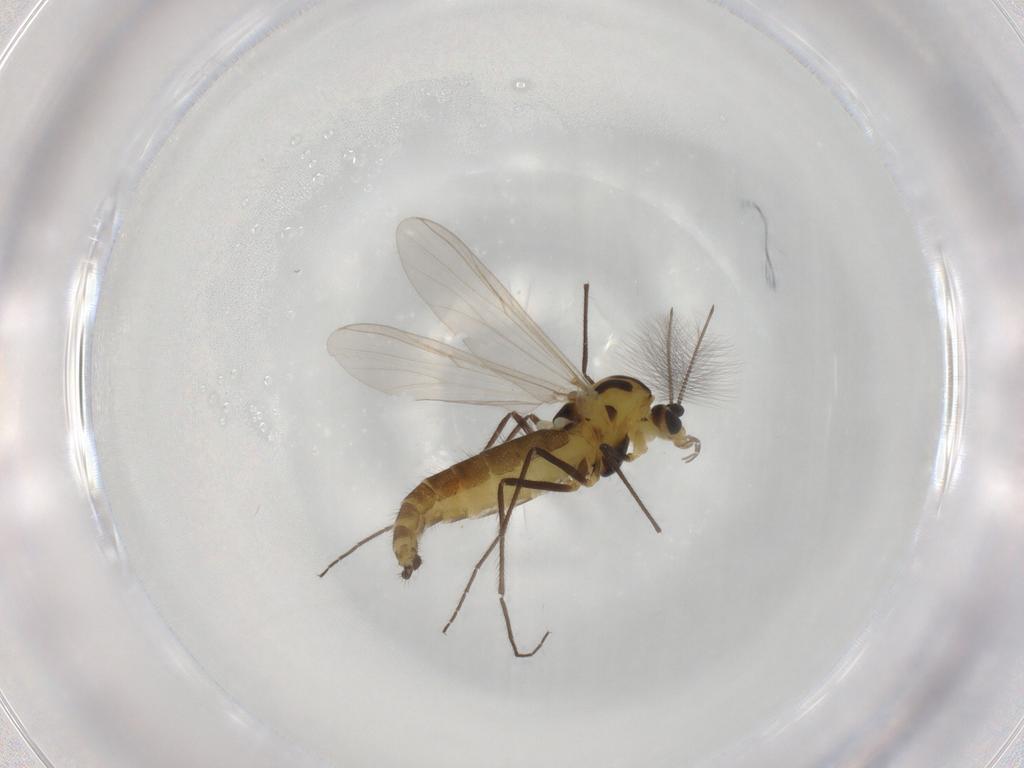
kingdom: Animalia
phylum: Arthropoda
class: Insecta
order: Diptera
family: Chironomidae
